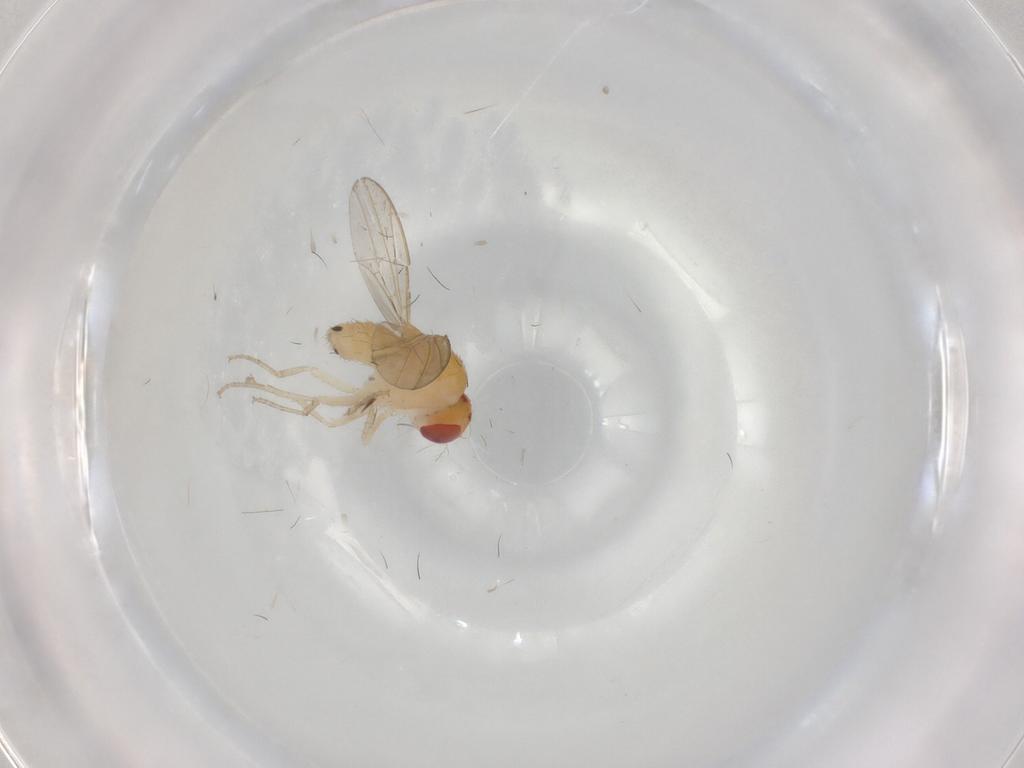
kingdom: Animalia
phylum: Arthropoda
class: Insecta
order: Diptera
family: Drosophilidae
